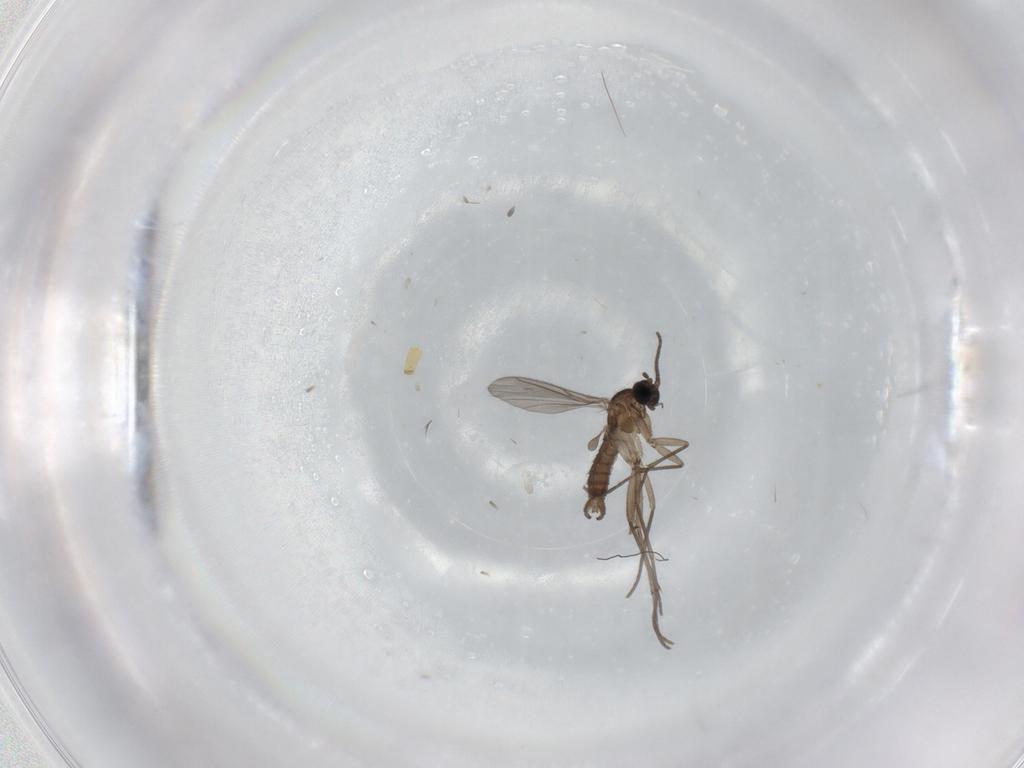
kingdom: Animalia
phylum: Arthropoda
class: Insecta
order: Diptera
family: Sciaridae
